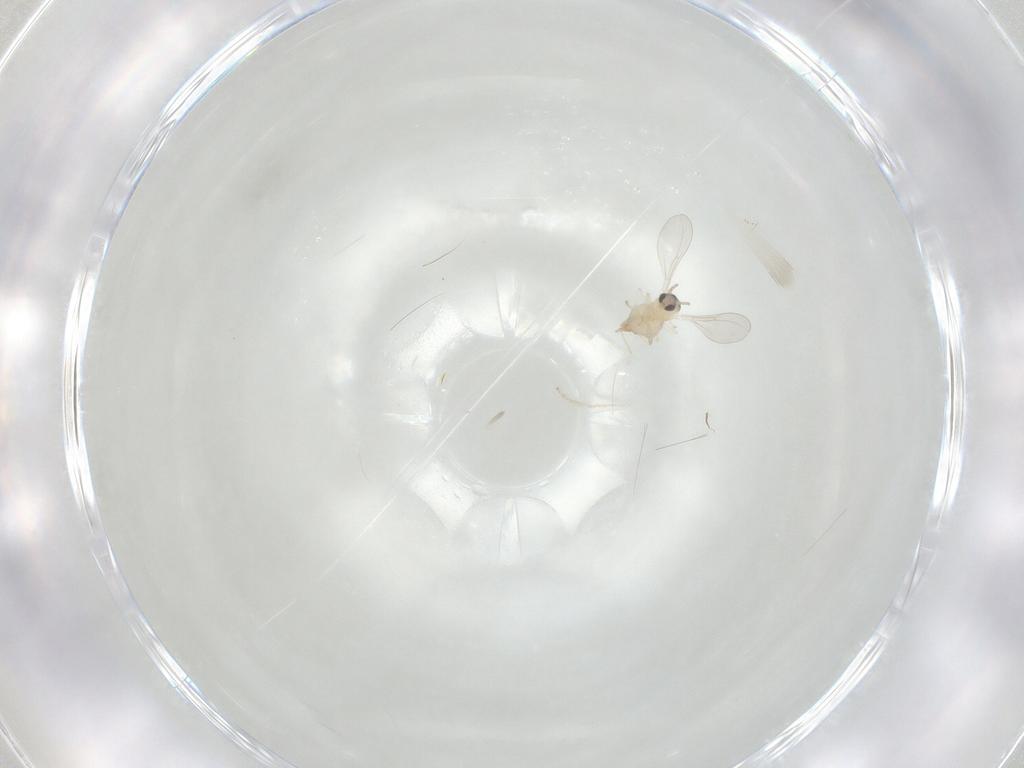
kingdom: Animalia
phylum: Arthropoda
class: Insecta
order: Diptera
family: Cecidomyiidae
